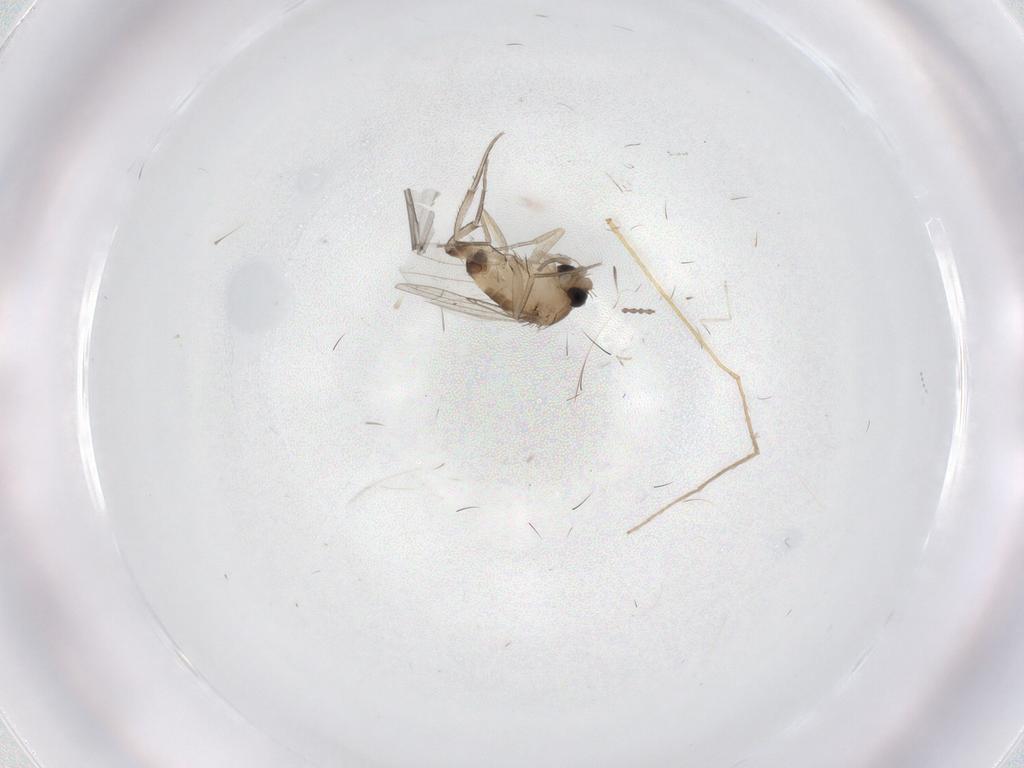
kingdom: Animalia
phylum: Arthropoda
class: Insecta
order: Diptera
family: Phoridae
